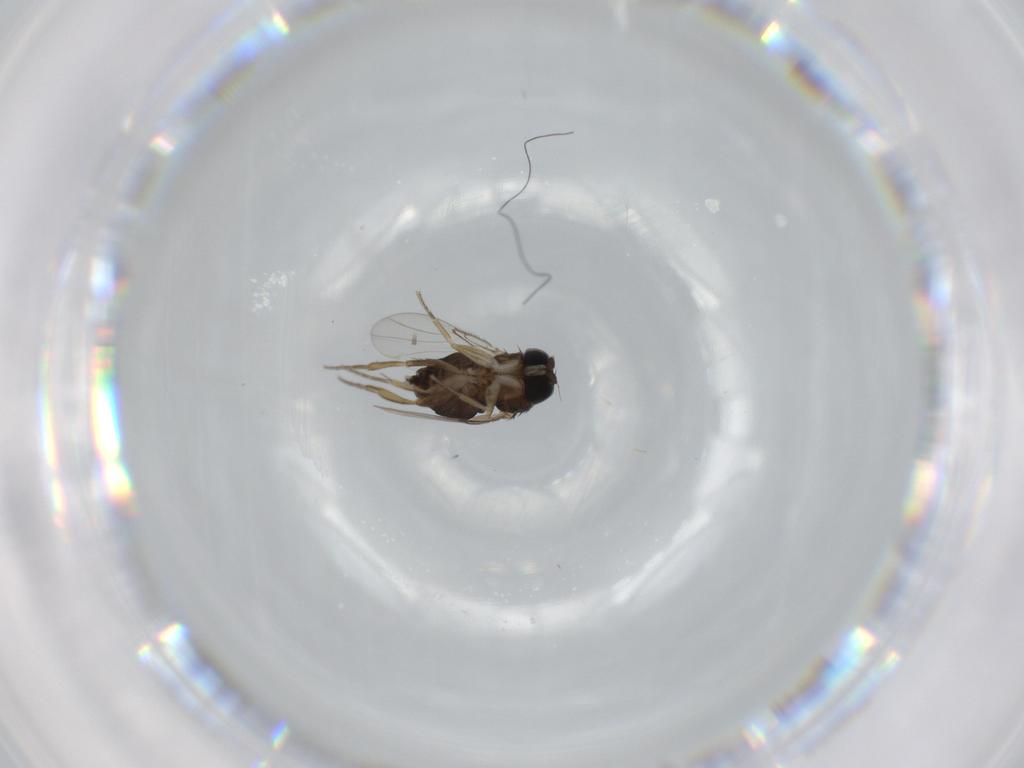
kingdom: Animalia
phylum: Arthropoda
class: Insecta
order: Diptera
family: Phoridae
